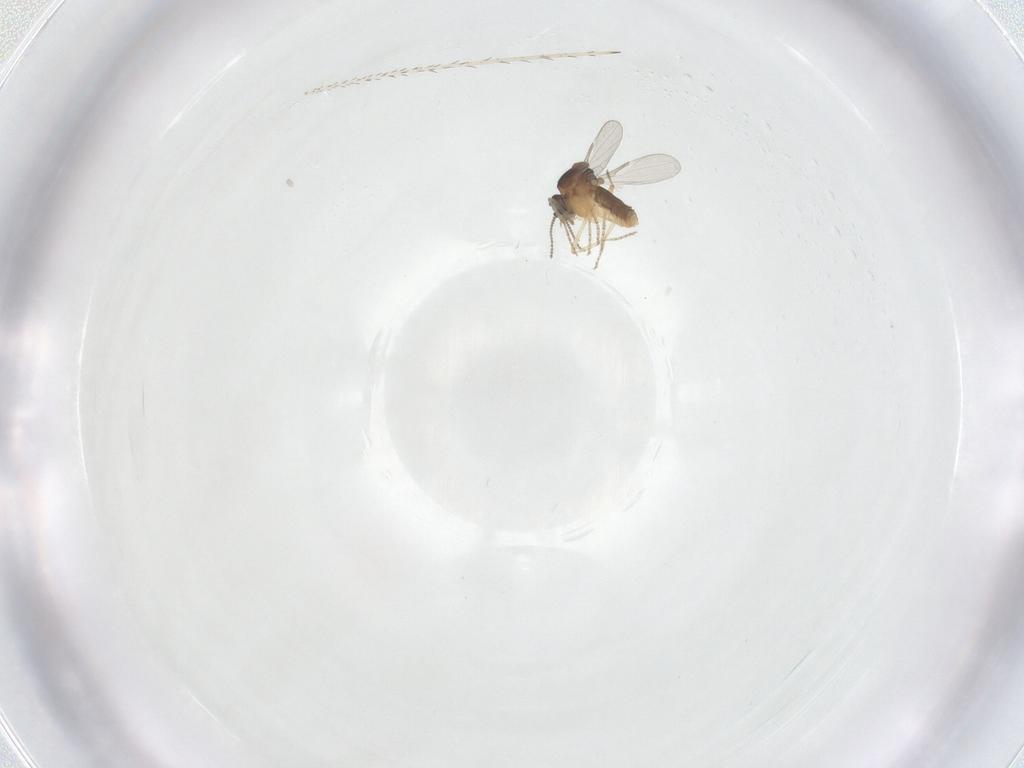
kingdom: Animalia
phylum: Arthropoda
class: Insecta
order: Diptera
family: Ceratopogonidae
